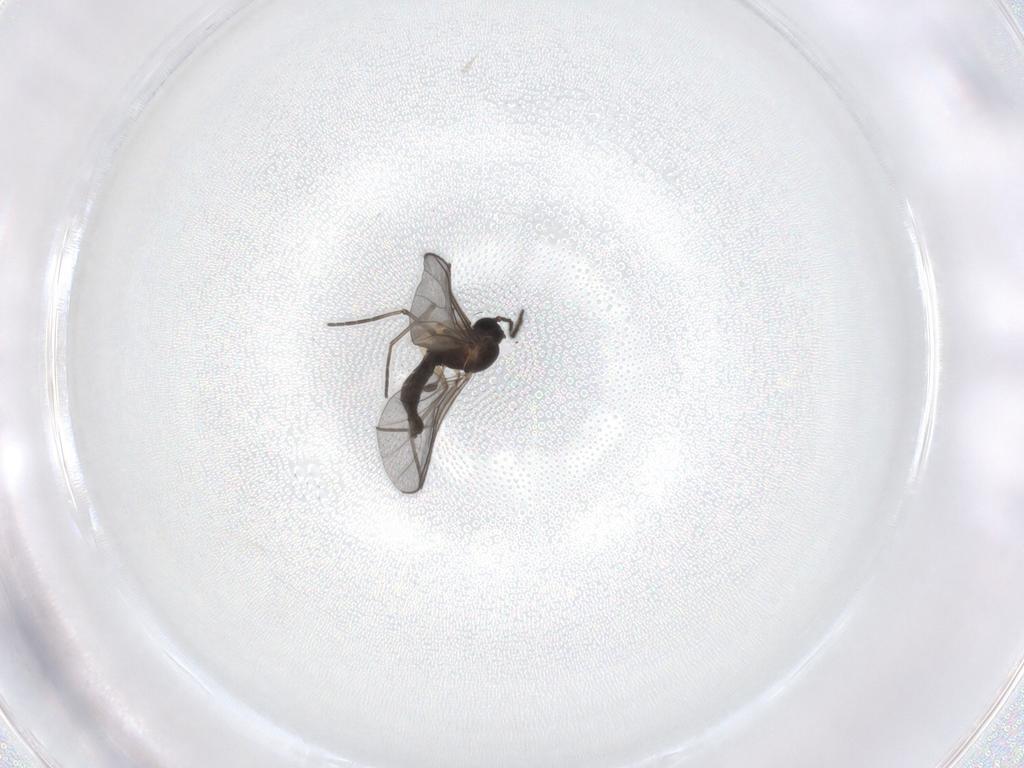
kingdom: Animalia
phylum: Arthropoda
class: Insecta
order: Diptera
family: Sciaridae
